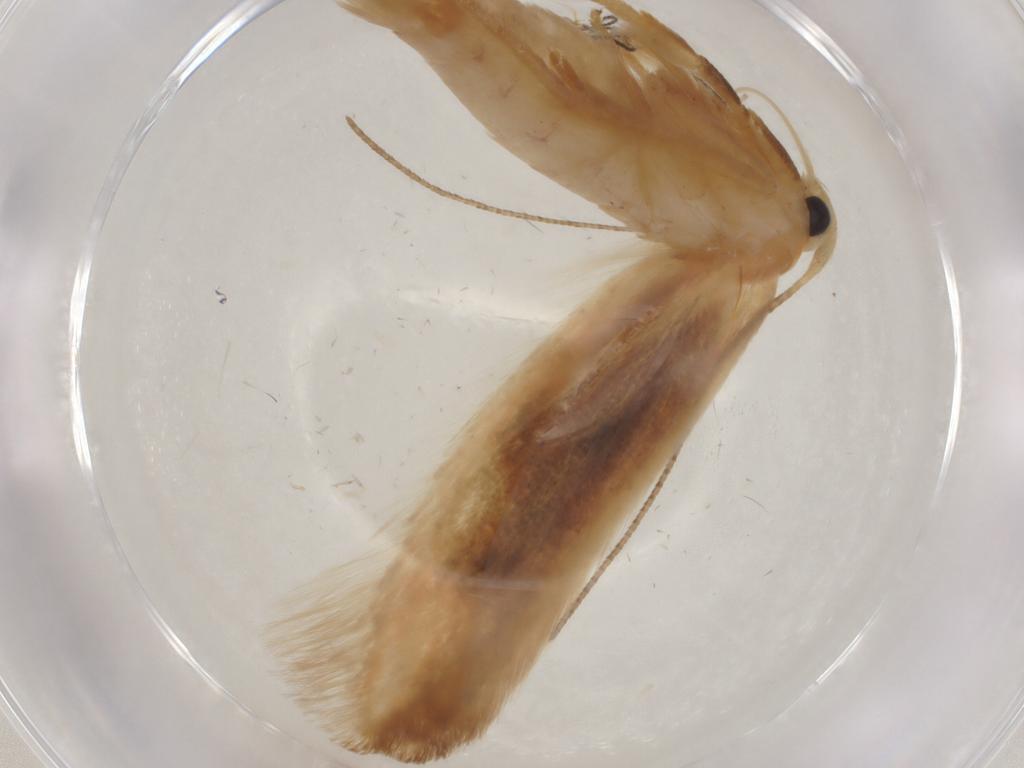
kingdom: Animalia
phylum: Arthropoda
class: Insecta
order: Lepidoptera
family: Geometridae
